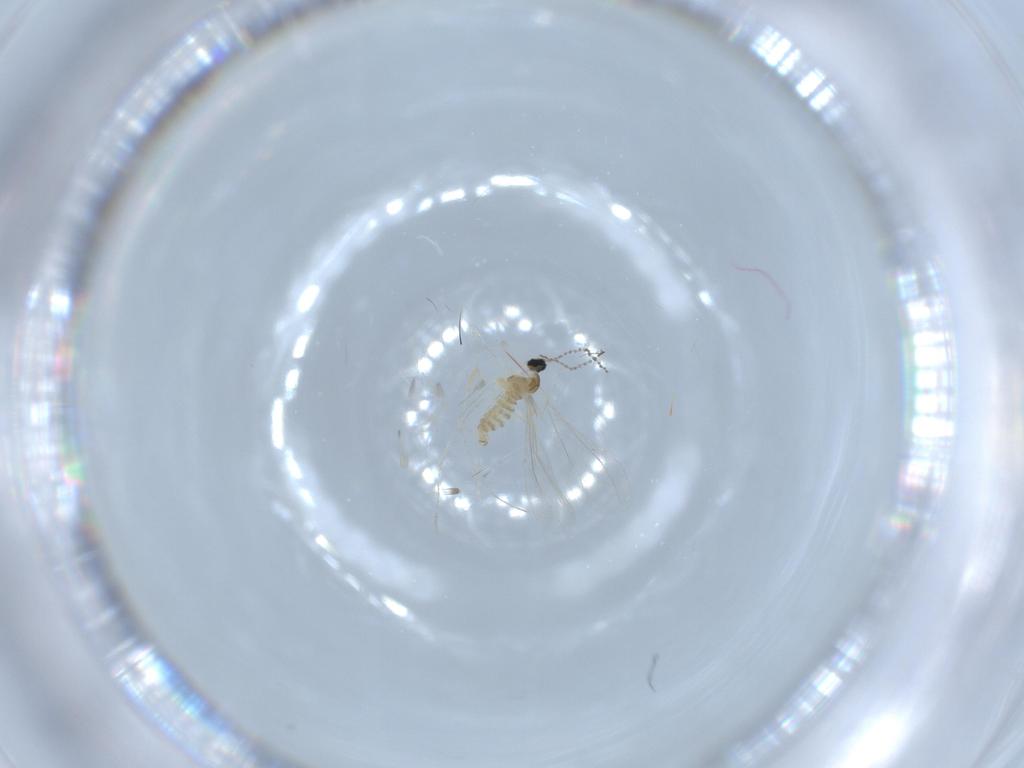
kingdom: Animalia
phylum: Arthropoda
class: Insecta
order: Diptera
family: Cecidomyiidae
